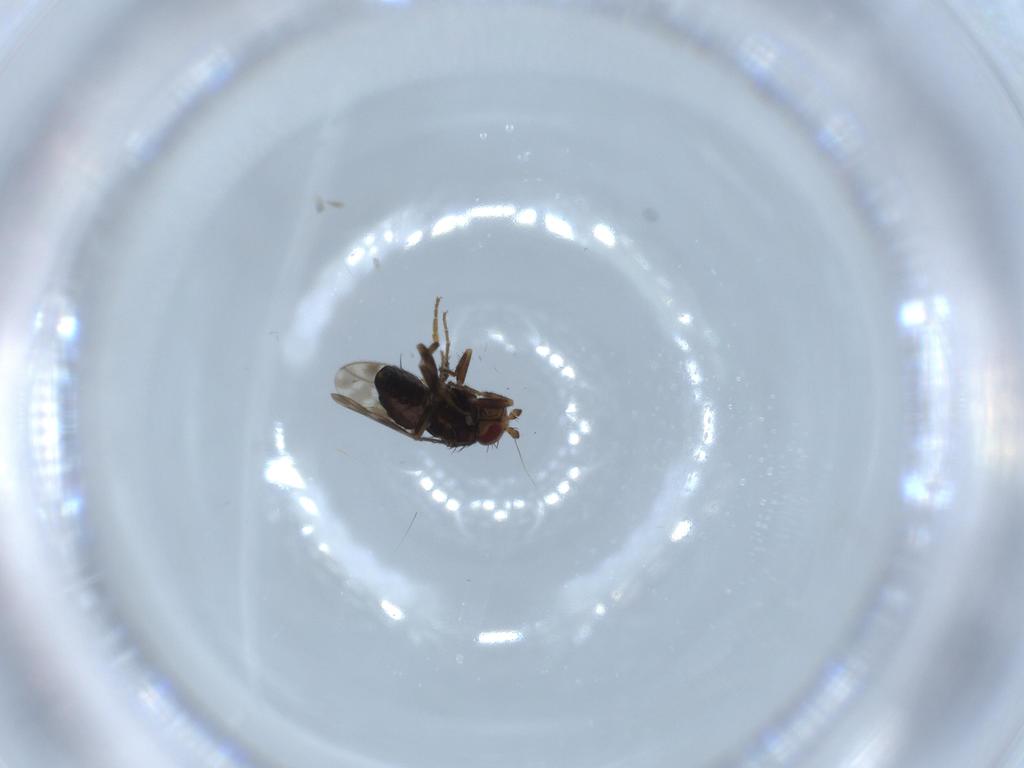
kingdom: Animalia
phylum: Arthropoda
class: Insecta
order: Diptera
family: Sphaeroceridae
